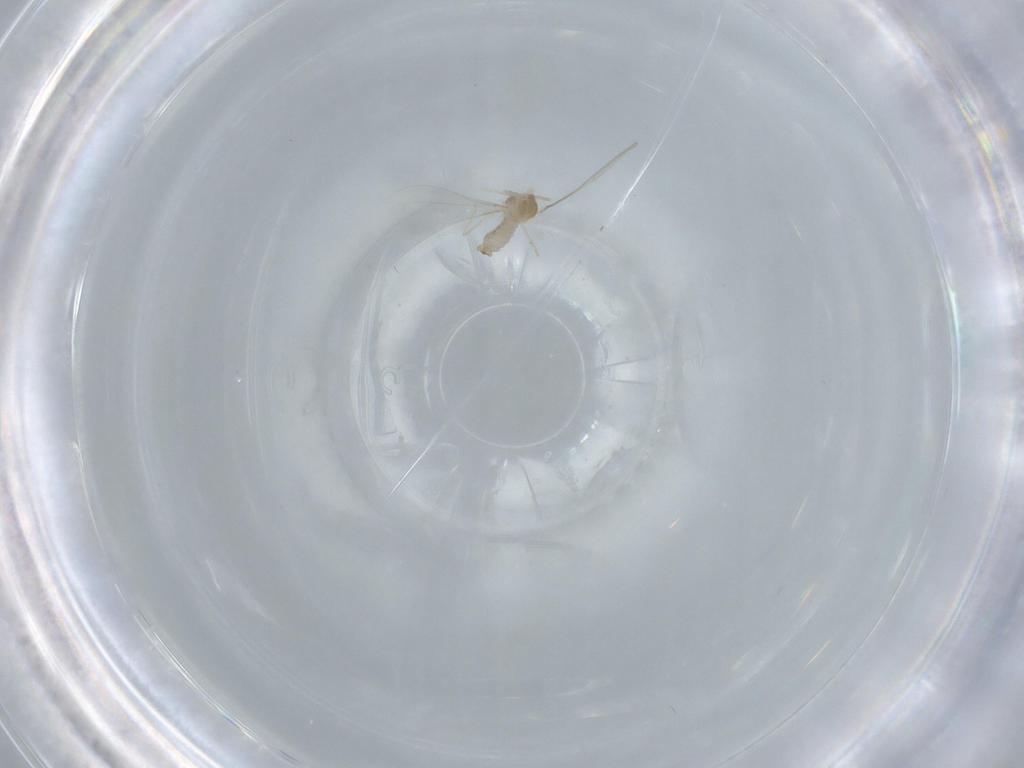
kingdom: Animalia
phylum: Arthropoda
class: Insecta
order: Diptera
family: Cecidomyiidae
